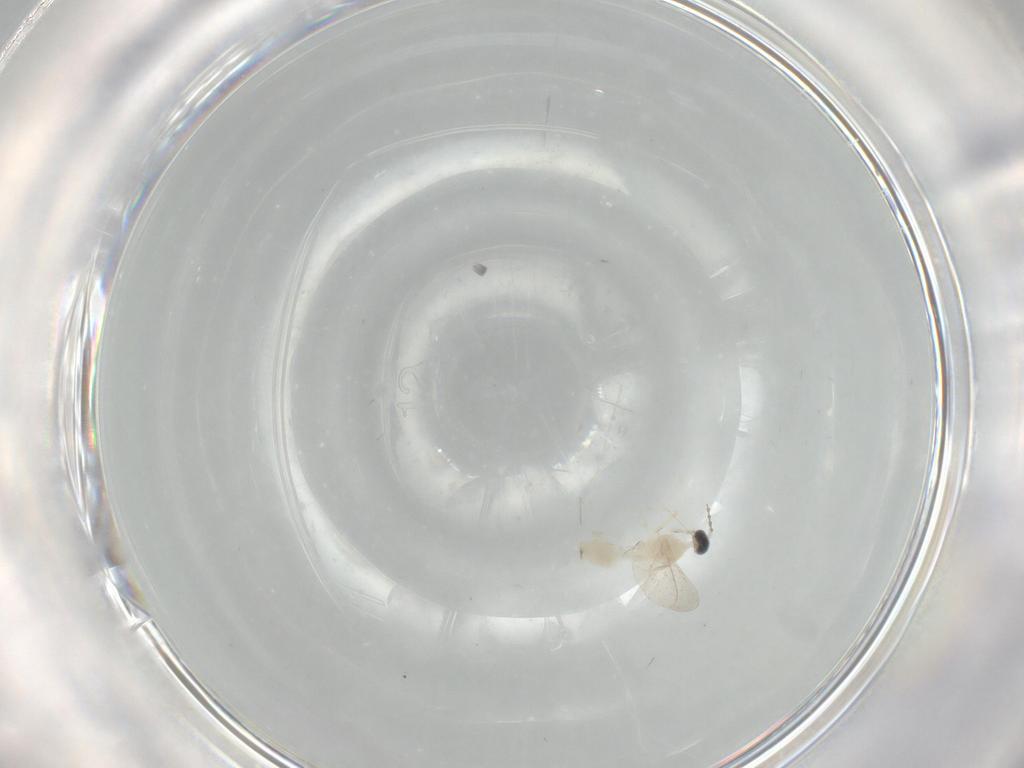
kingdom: Animalia
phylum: Arthropoda
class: Insecta
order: Diptera
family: Cecidomyiidae
